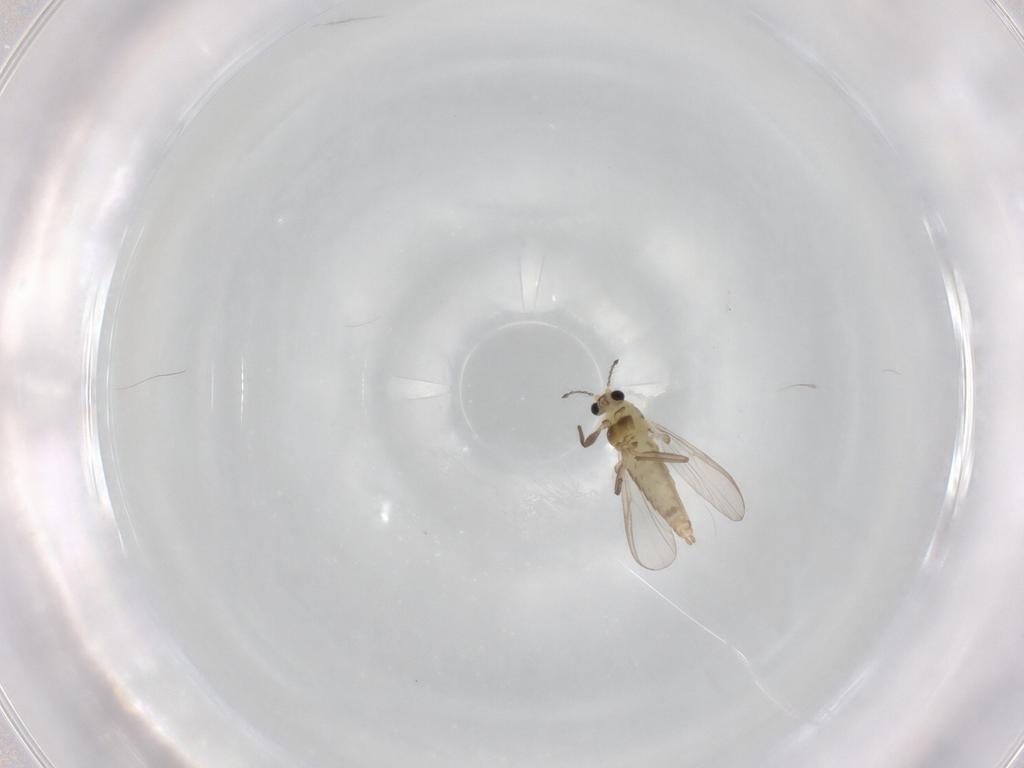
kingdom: Animalia
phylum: Arthropoda
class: Insecta
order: Diptera
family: Chironomidae
